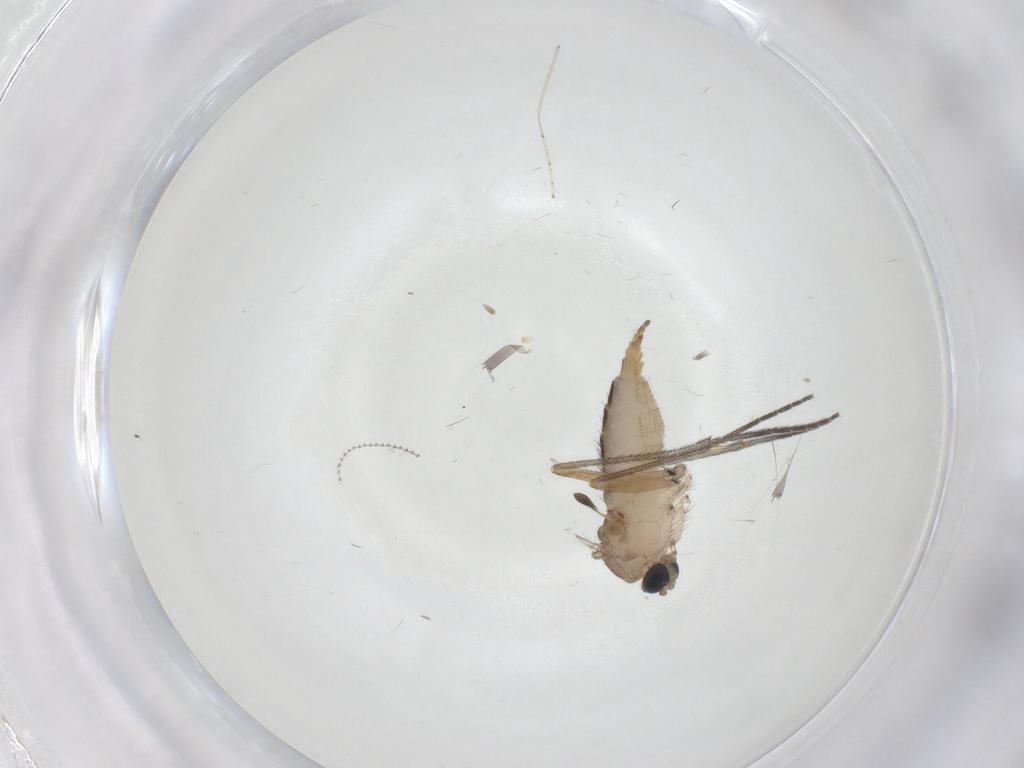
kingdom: Animalia
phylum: Arthropoda
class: Insecta
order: Diptera
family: Sciaridae
